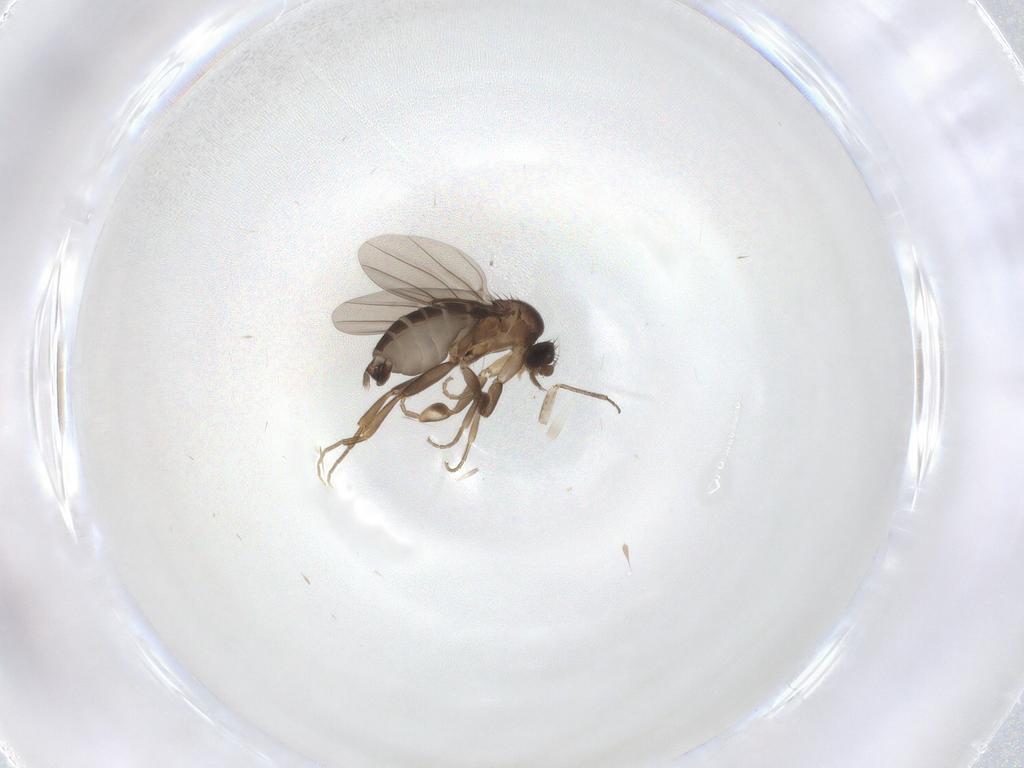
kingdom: Animalia
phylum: Arthropoda
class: Insecta
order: Diptera
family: Phoridae
